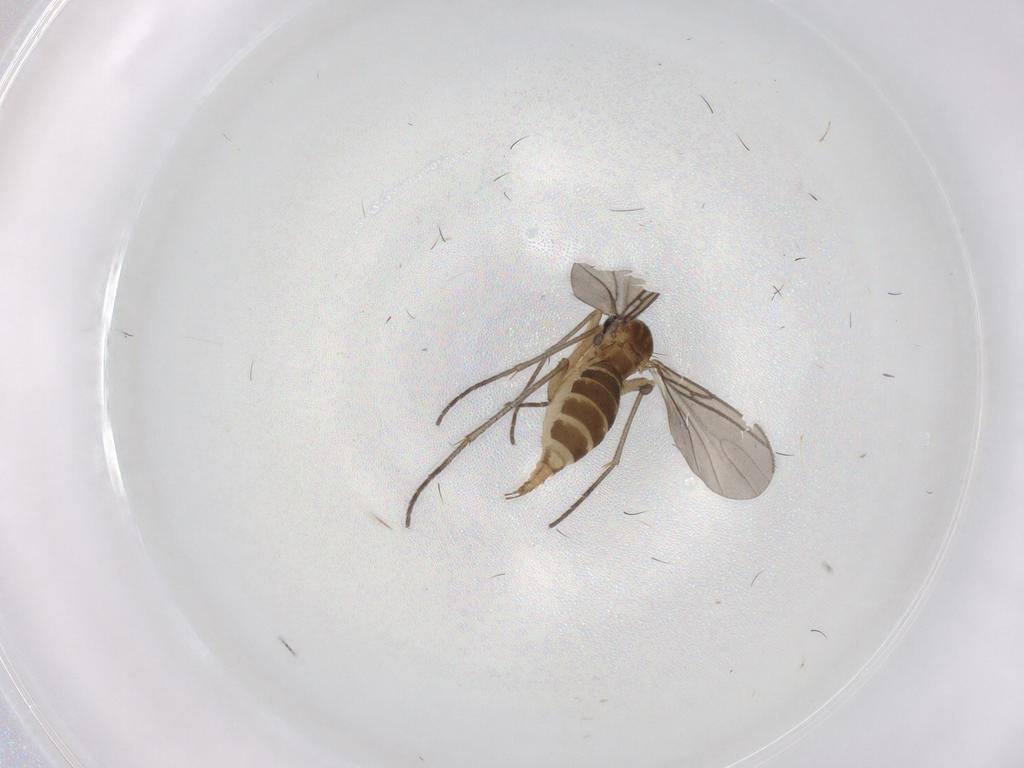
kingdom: Animalia
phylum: Arthropoda
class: Insecta
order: Diptera
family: Sciaridae
